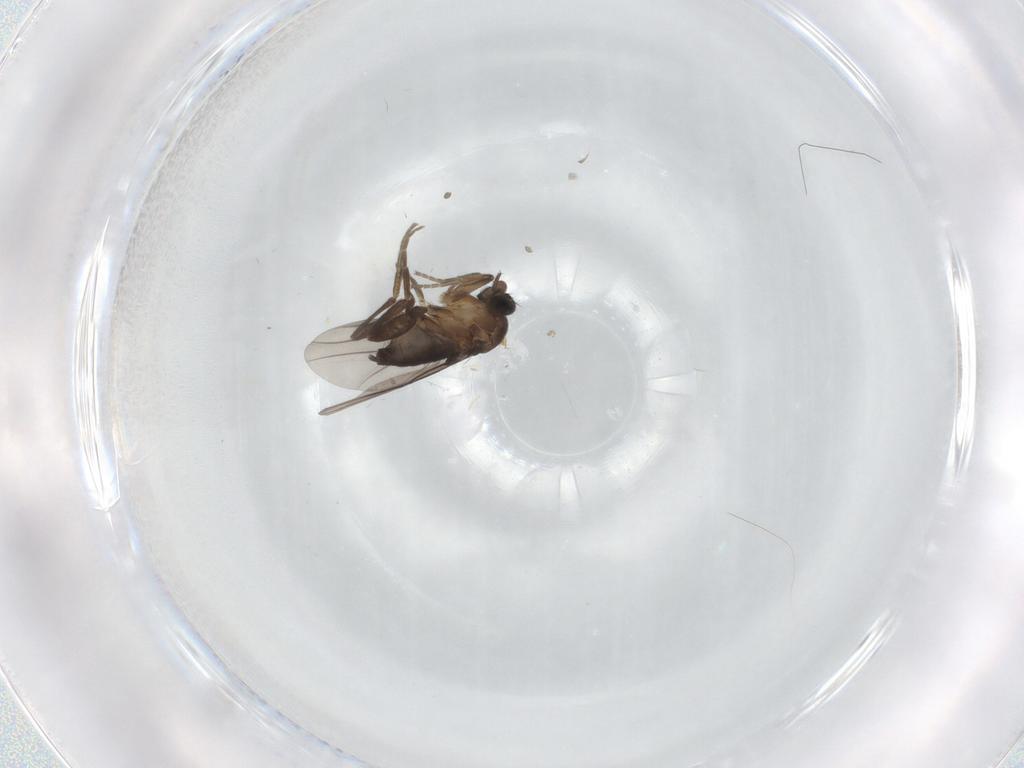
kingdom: Animalia
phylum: Arthropoda
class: Insecta
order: Diptera
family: Phoridae
